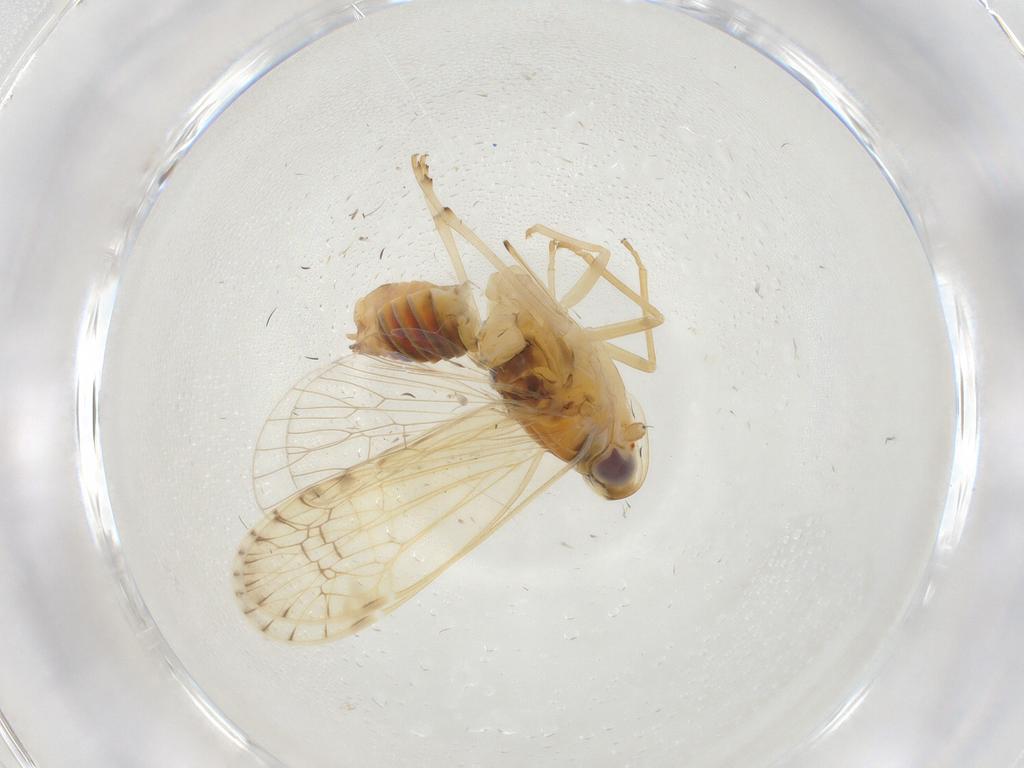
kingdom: Animalia
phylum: Arthropoda
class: Insecta
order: Hemiptera
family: Kinnaridae
